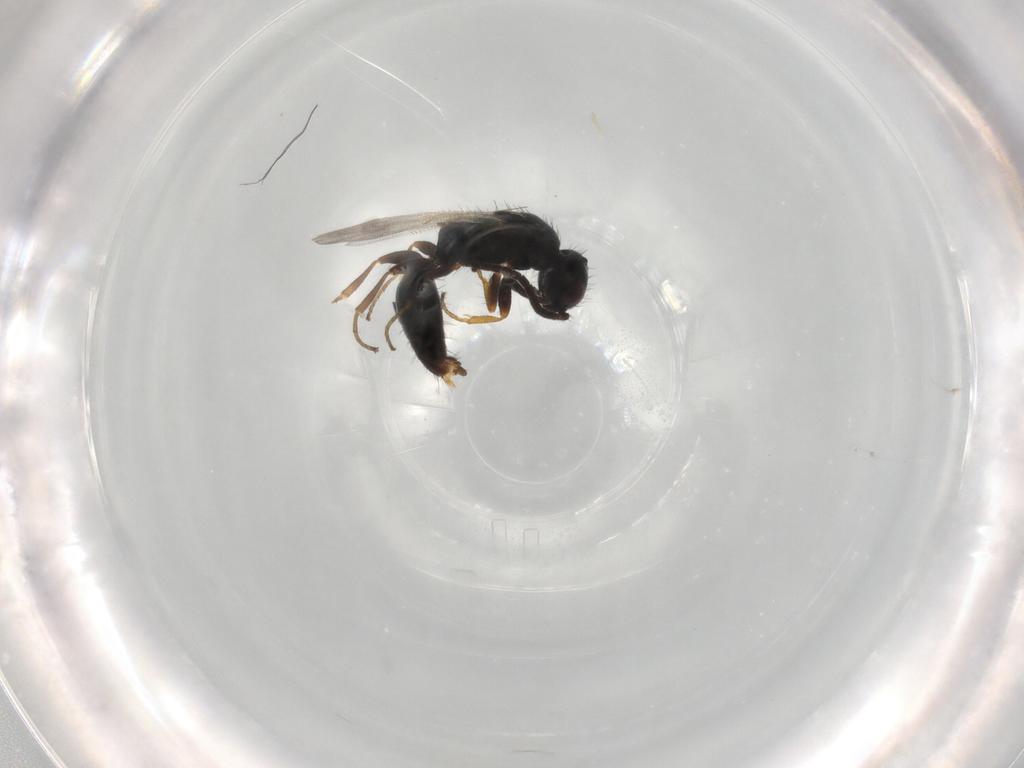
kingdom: Animalia
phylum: Arthropoda
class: Insecta
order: Hymenoptera
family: Bethylidae
